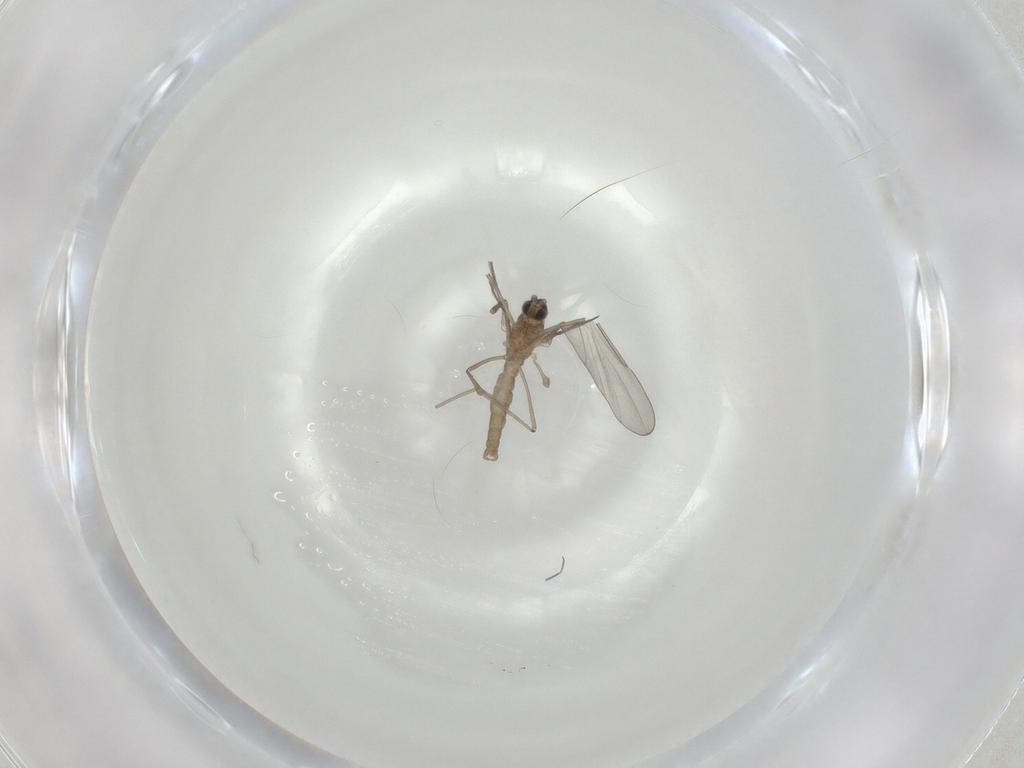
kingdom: Animalia
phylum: Arthropoda
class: Insecta
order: Diptera
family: Cecidomyiidae
